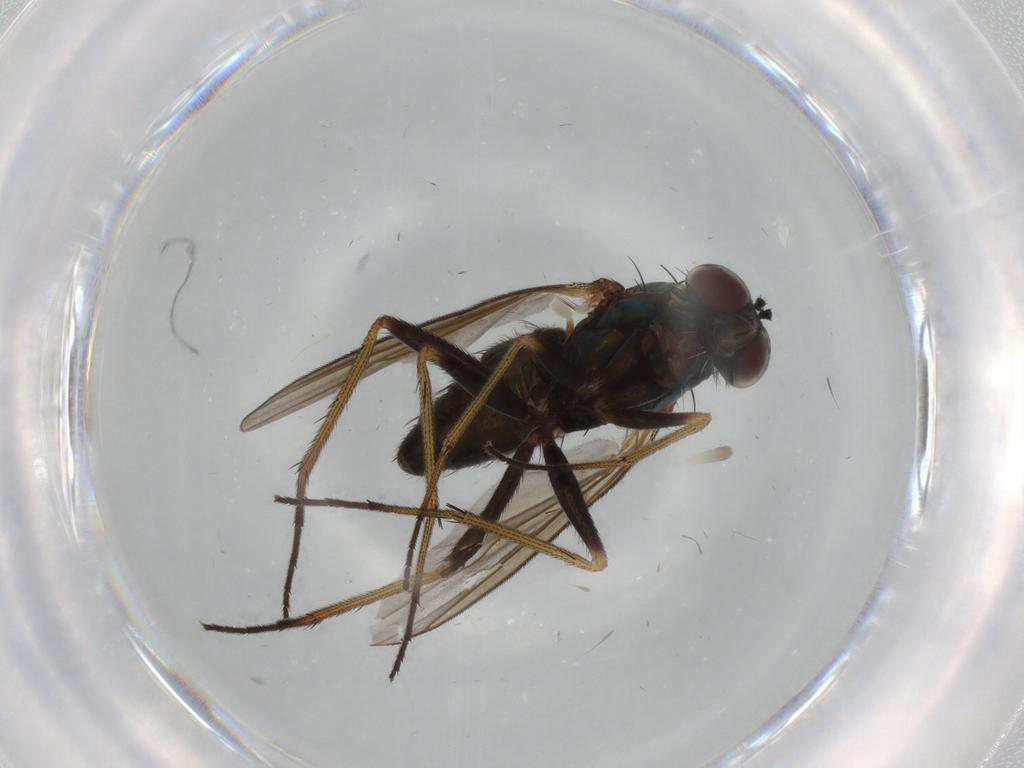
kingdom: Animalia
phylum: Arthropoda
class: Insecta
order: Diptera
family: Dolichopodidae
